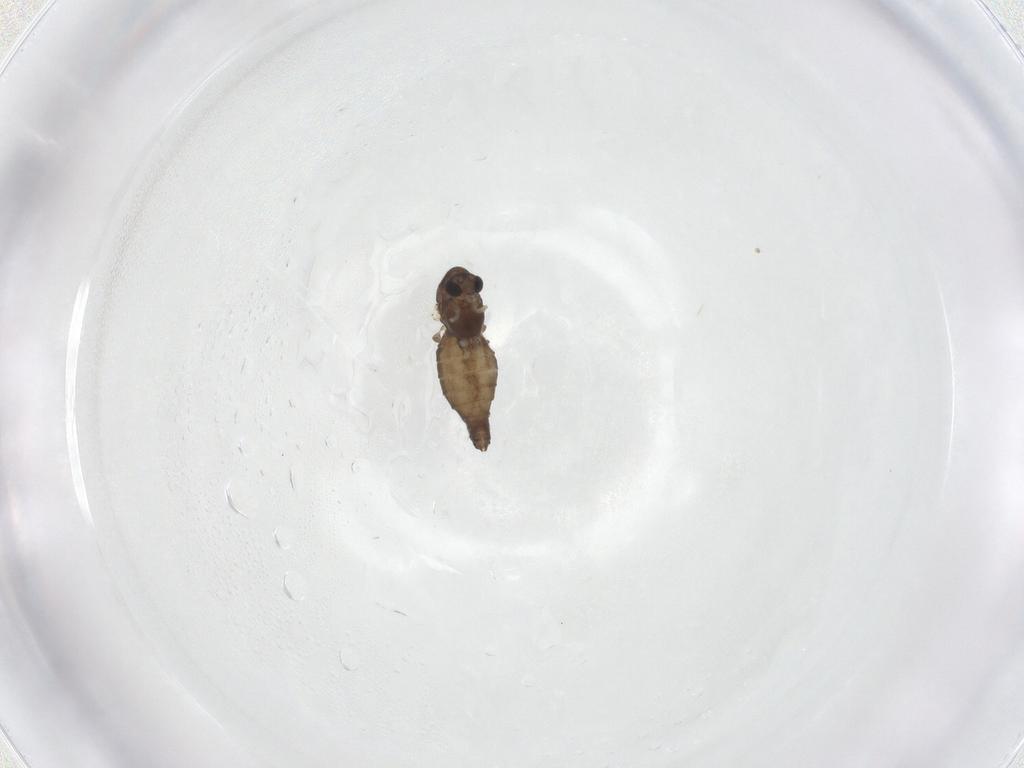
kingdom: Animalia
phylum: Arthropoda
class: Insecta
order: Diptera
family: Chironomidae
